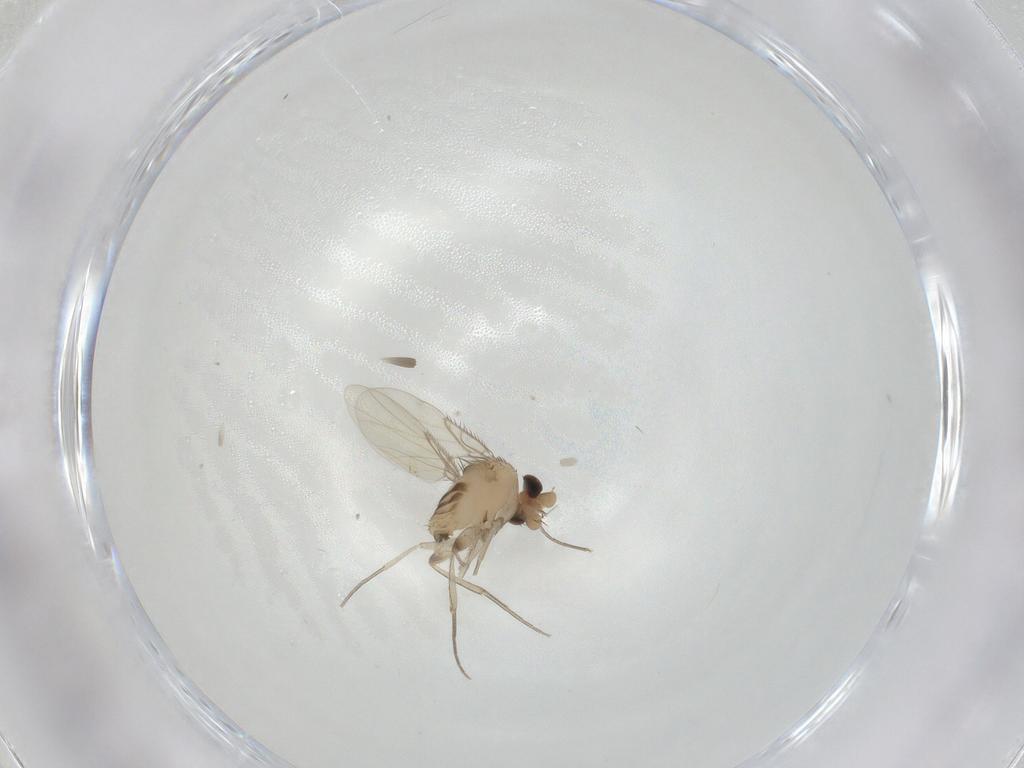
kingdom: Animalia
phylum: Arthropoda
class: Insecta
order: Diptera
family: Phoridae
